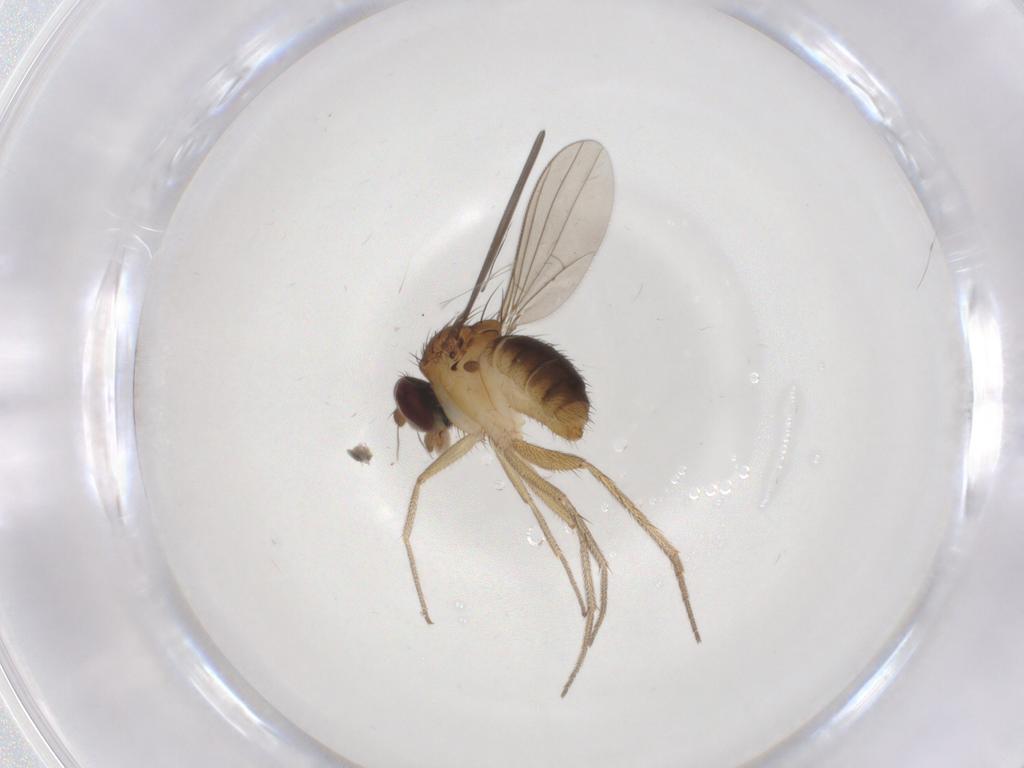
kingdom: Animalia
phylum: Arthropoda
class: Insecta
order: Diptera
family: Dolichopodidae
